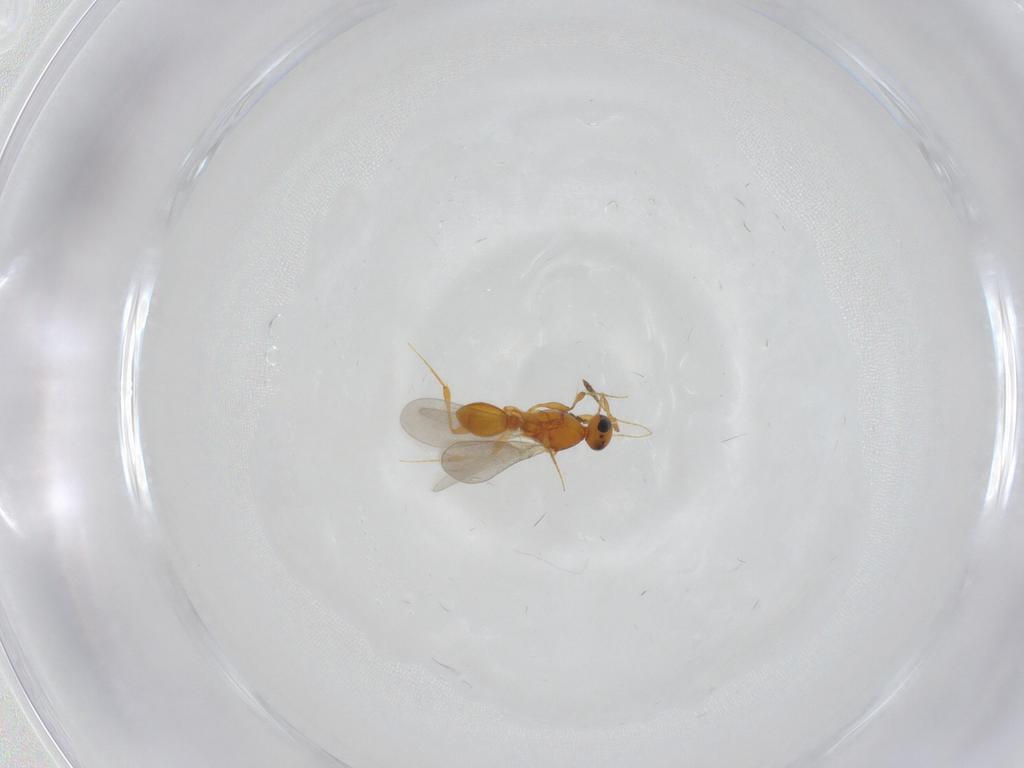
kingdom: Animalia
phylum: Arthropoda
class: Insecta
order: Hymenoptera
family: Platygastridae
